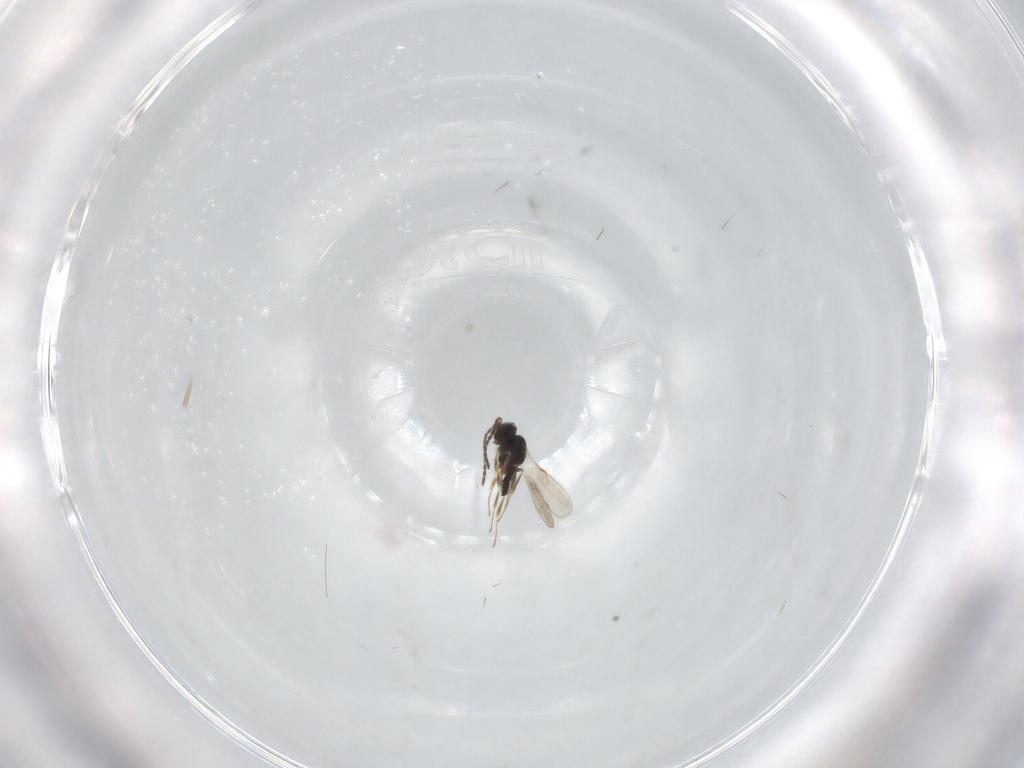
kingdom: Animalia
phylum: Arthropoda
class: Insecta
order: Hymenoptera
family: Scelionidae
